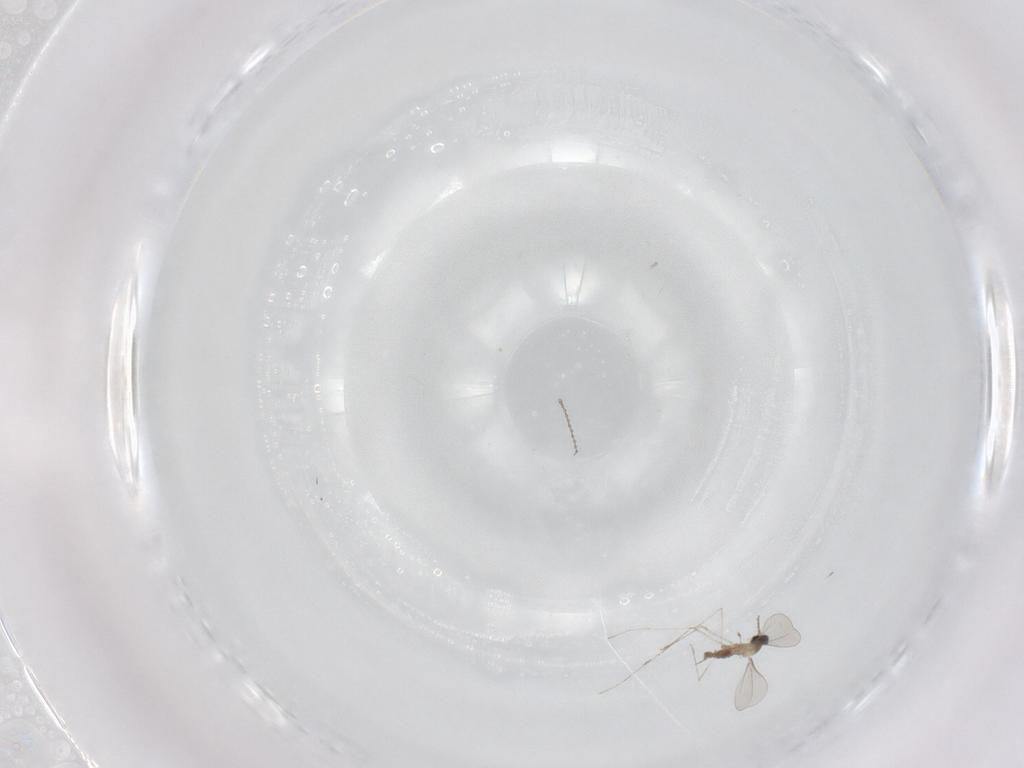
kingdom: Animalia
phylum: Arthropoda
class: Insecta
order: Diptera
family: Cecidomyiidae
